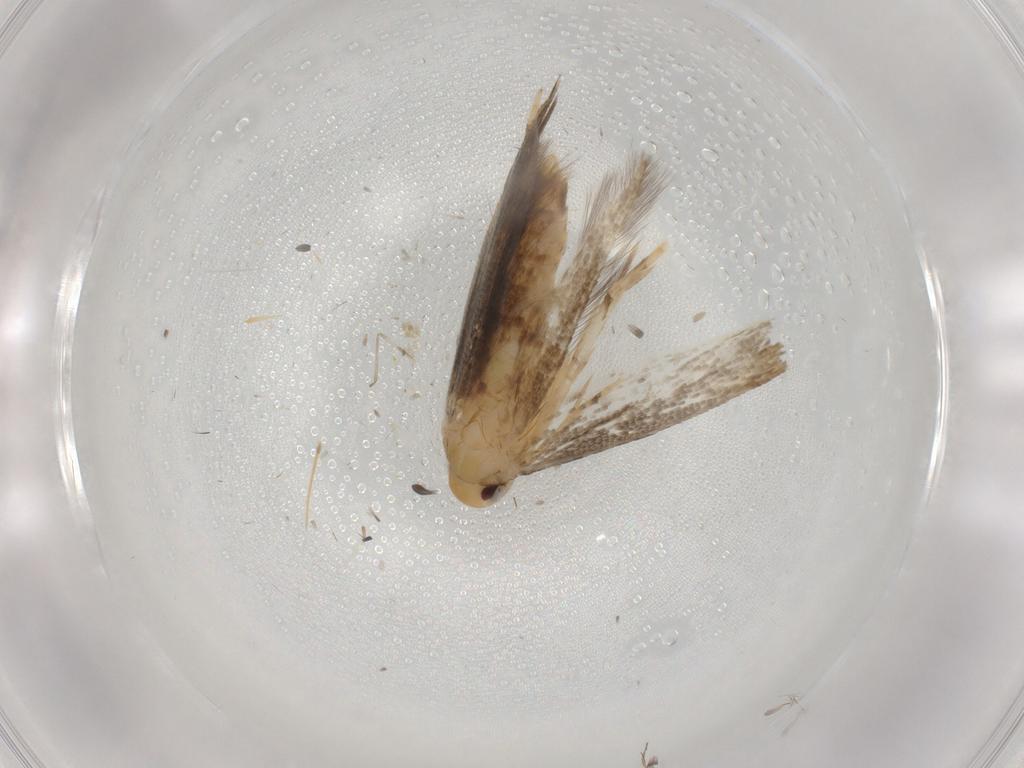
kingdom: Animalia
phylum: Arthropoda
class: Insecta
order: Lepidoptera
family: Momphidae
